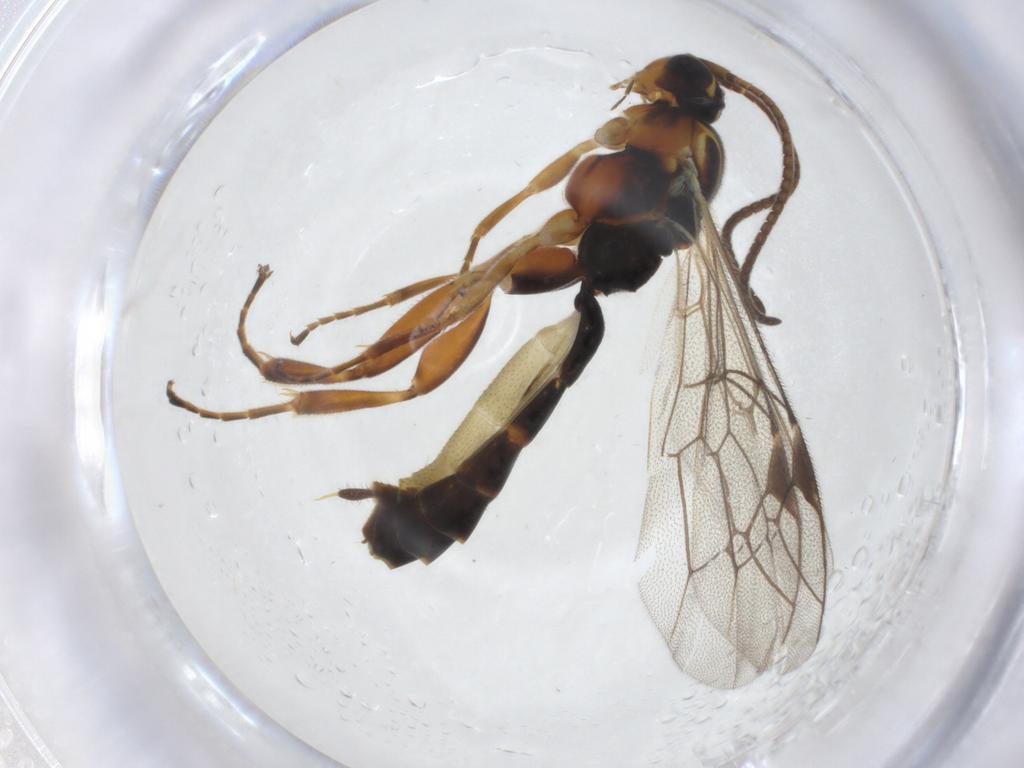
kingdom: Animalia
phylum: Arthropoda
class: Insecta
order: Hymenoptera
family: Ichneumonidae
